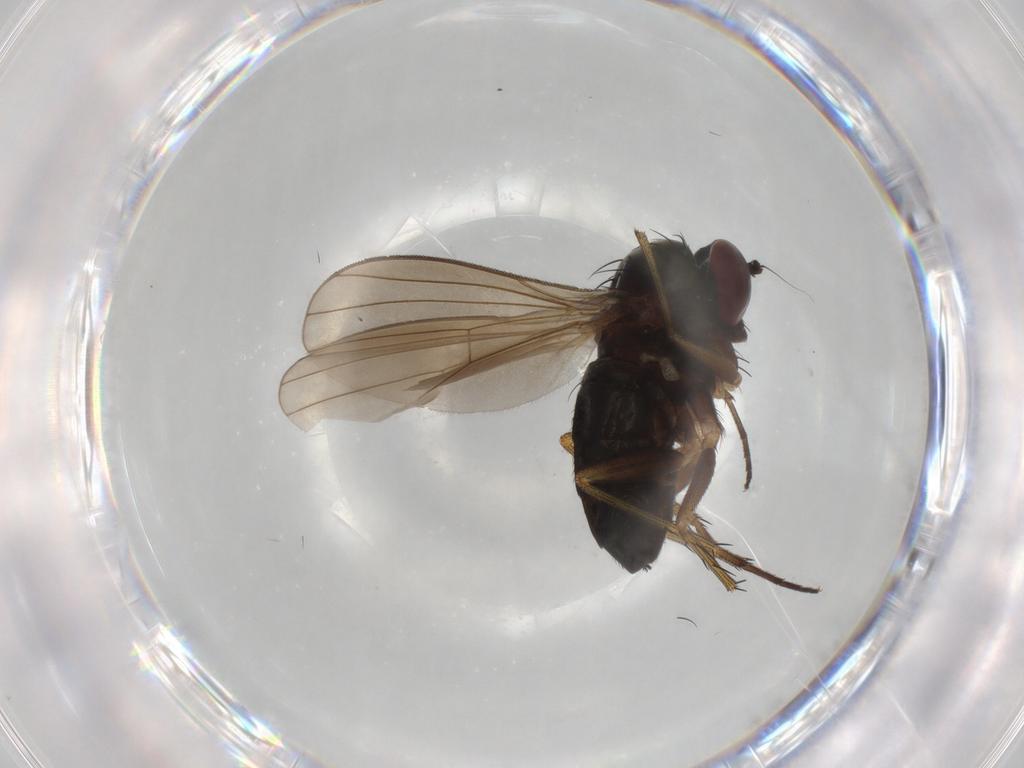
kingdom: Animalia
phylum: Arthropoda
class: Insecta
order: Diptera
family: Dolichopodidae
